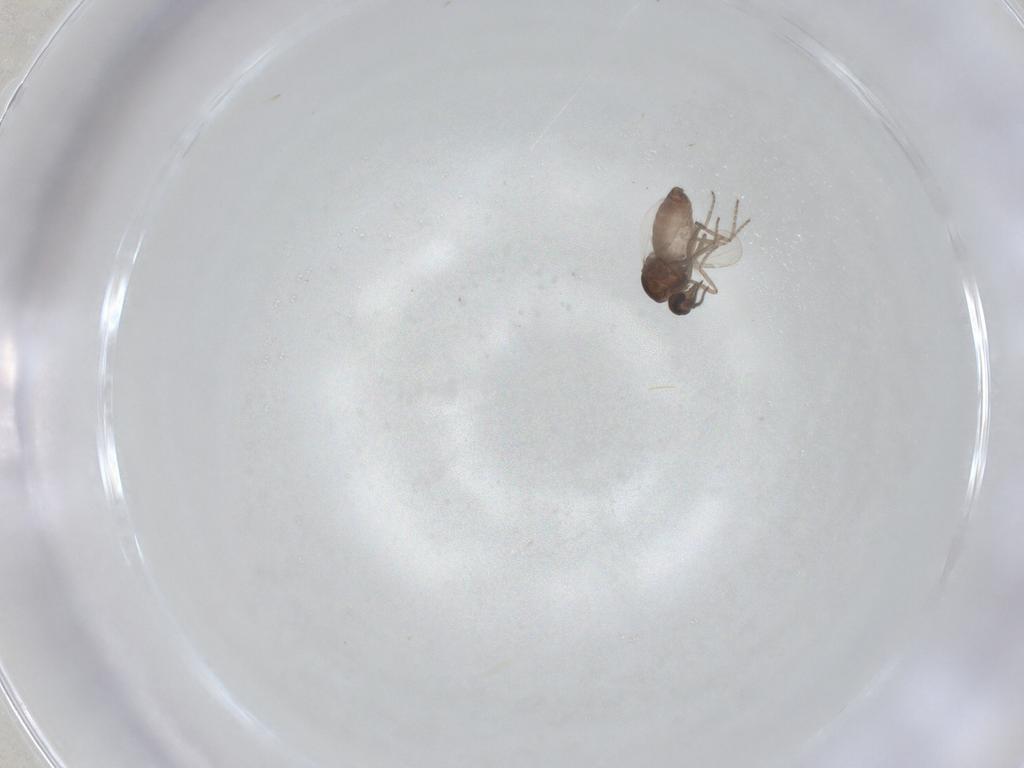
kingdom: Animalia
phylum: Arthropoda
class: Insecta
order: Diptera
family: Ceratopogonidae
